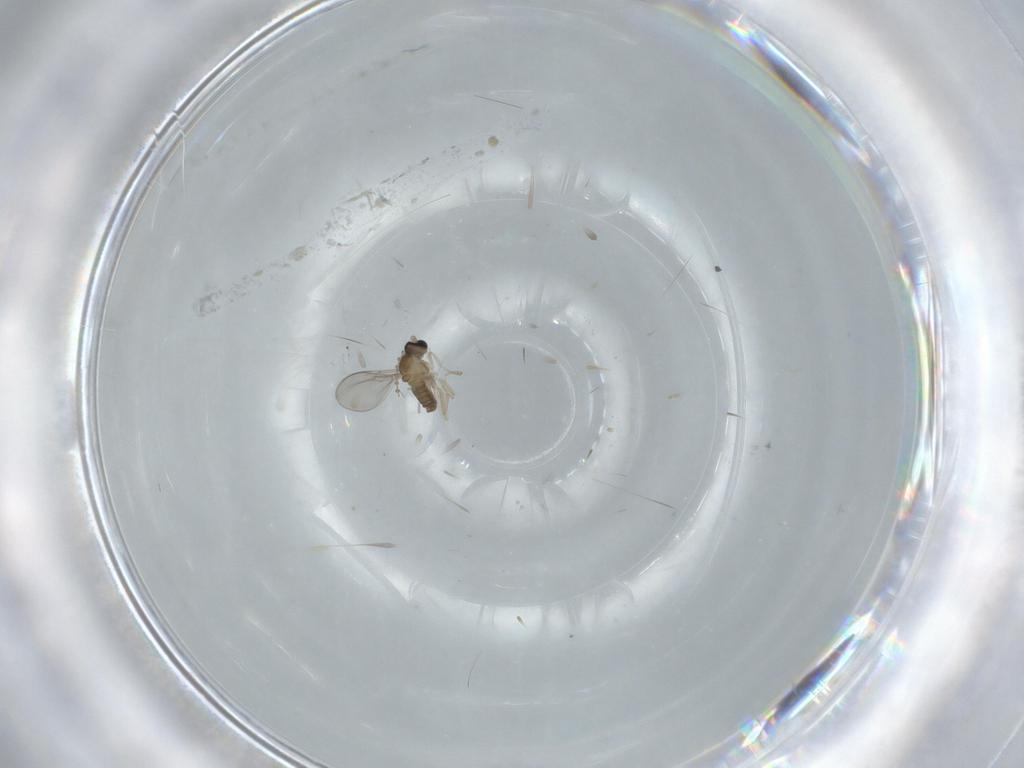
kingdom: Animalia
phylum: Arthropoda
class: Insecta
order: Diptera
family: Cecidomyiidae
